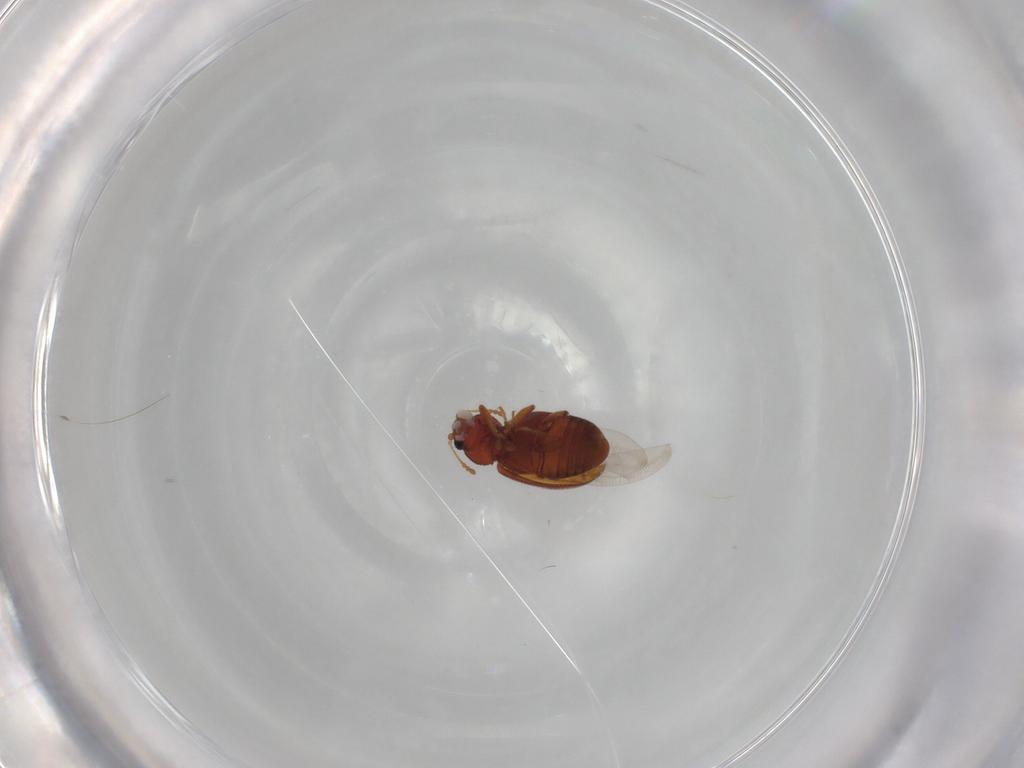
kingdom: Animalia
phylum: Arthropoda
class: Insecta
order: Coleoptera
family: Latridiidae
